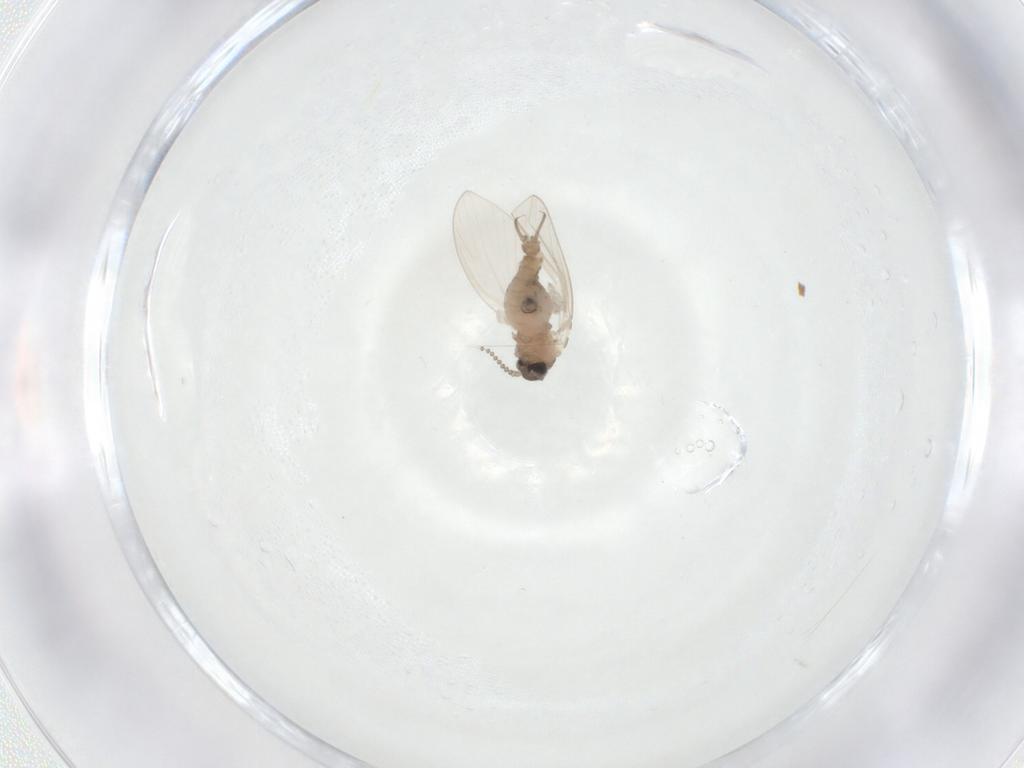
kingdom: Animalia
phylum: Arthropoda
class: Insecta
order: Diptera
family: Psychodidae
